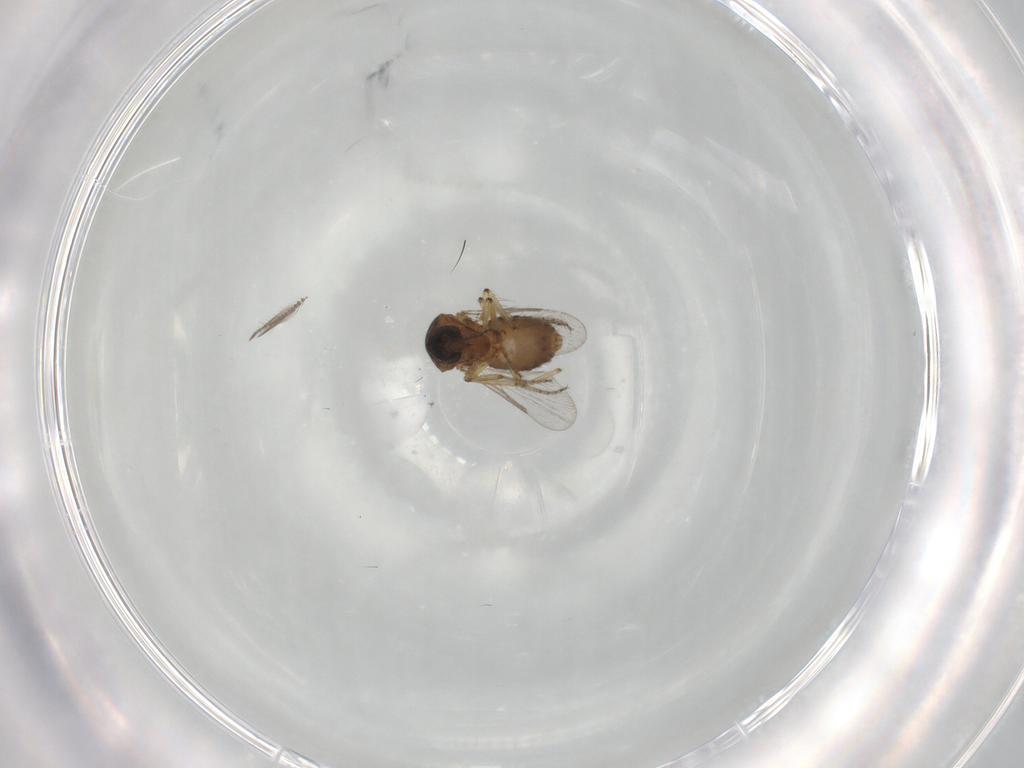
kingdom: Animalia
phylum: Arthropoda
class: Insecta
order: Diptera
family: Ceratopogonidae
